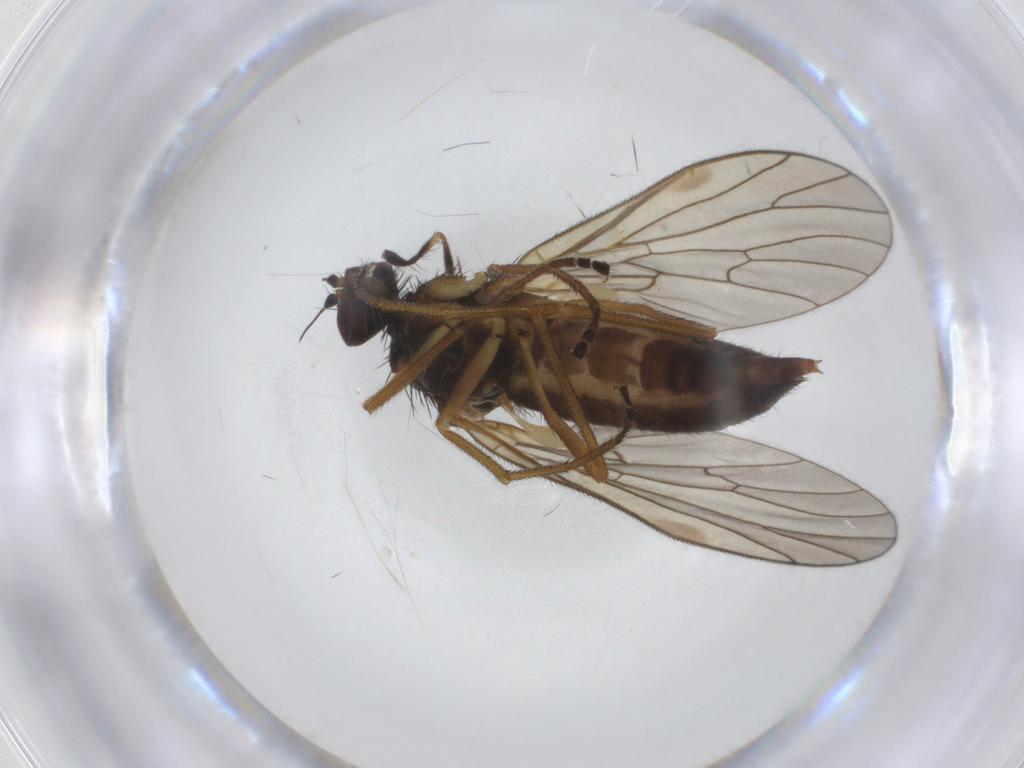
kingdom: Animalia
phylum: Arthropoda
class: Insecta
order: Diptera
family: Brachystomatidae
